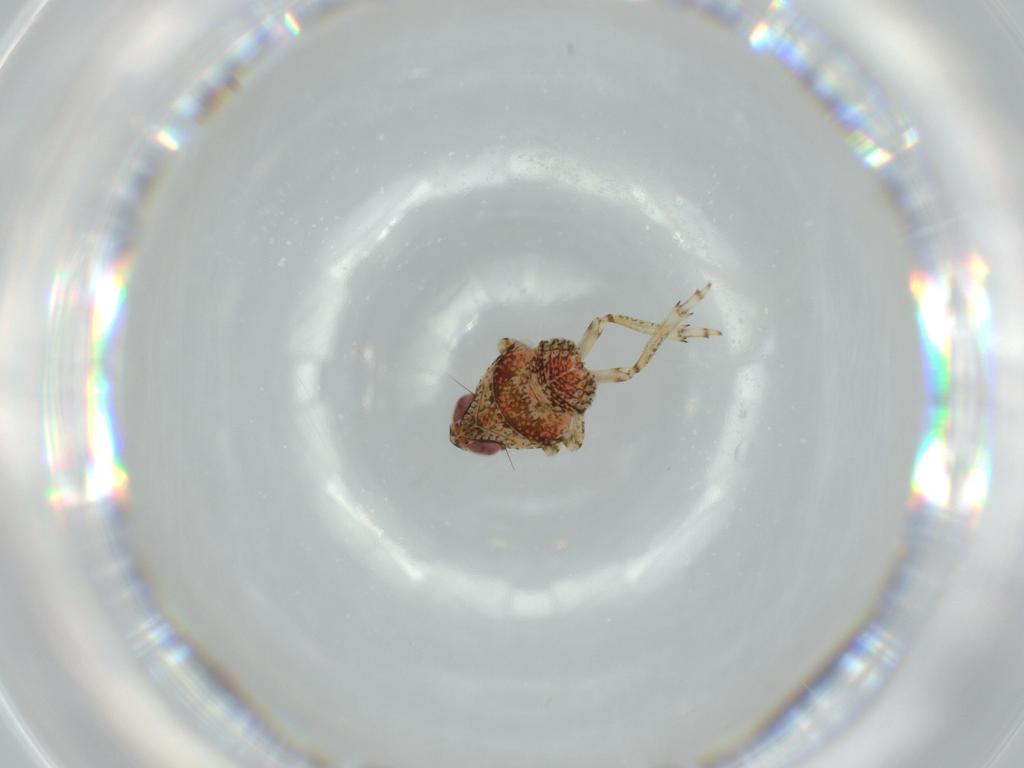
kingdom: Animalia
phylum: Arthropoda
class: Insecta
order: Hemiptera
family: Issidae
